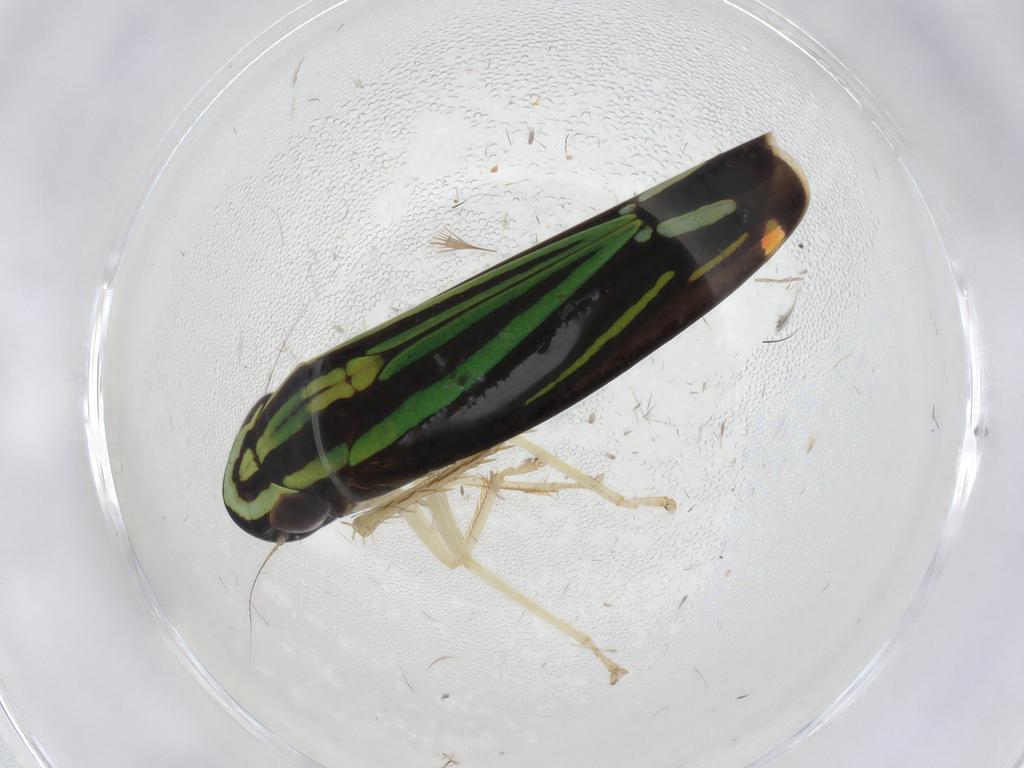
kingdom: Animalia
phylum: Arthropoda
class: Insecta
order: Hemiptera
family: Cicadellidae
